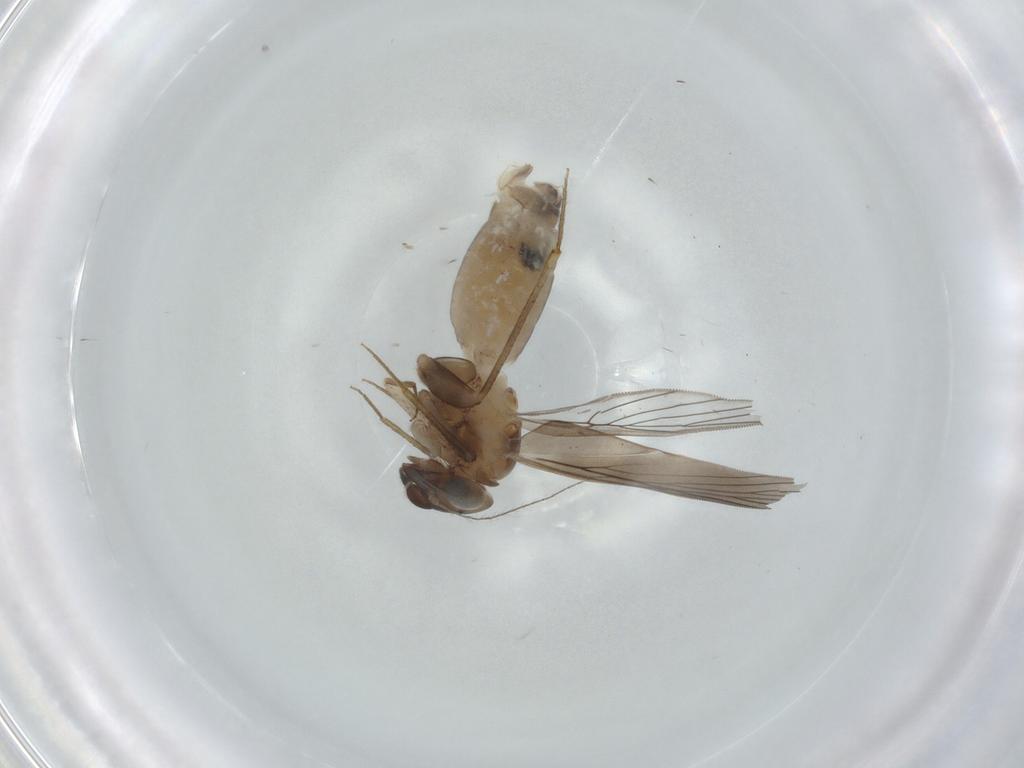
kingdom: Animalia
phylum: Arthropoda
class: Insecta
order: Psocodea
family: Lepidopsocidae
